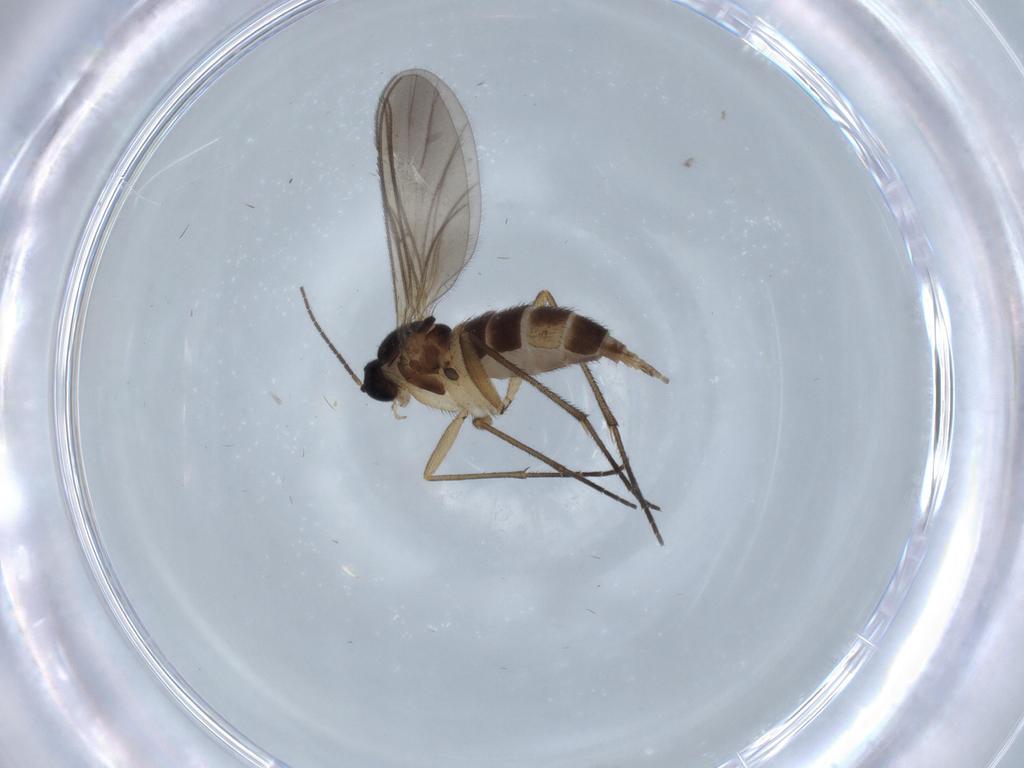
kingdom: Animalia
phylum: Arthropoda
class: Insecta
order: Diptera
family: Sciaridae
